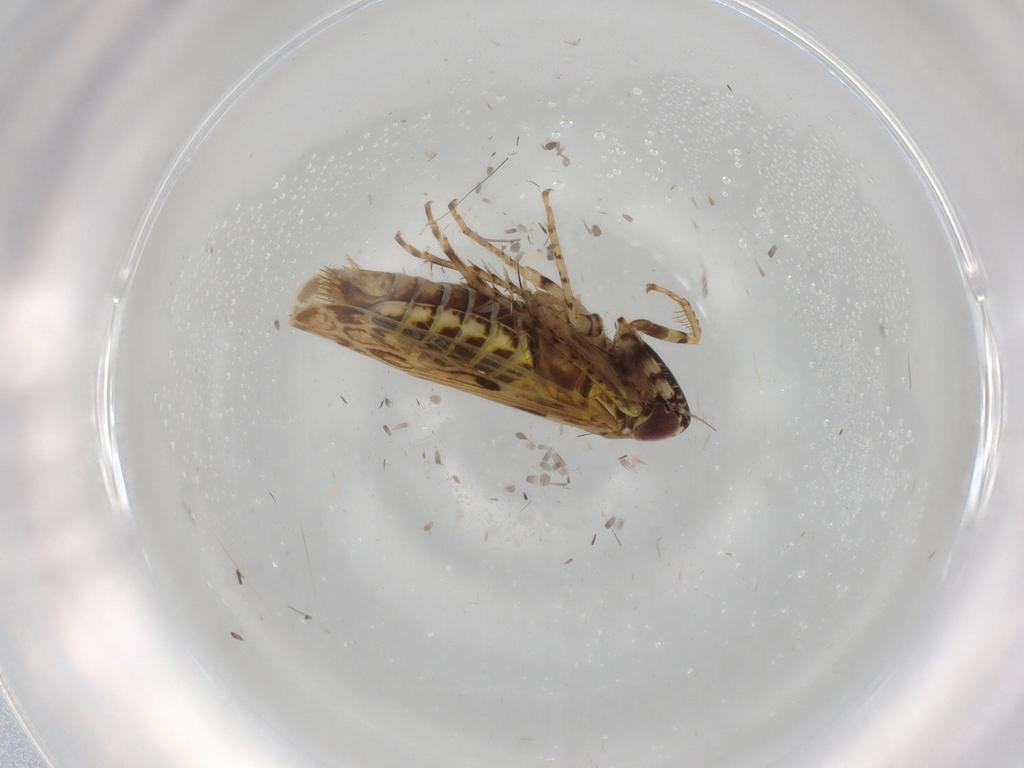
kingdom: Animalia
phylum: Arthropoda
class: Insecta
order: Hemiptera
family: Cicadellidae
